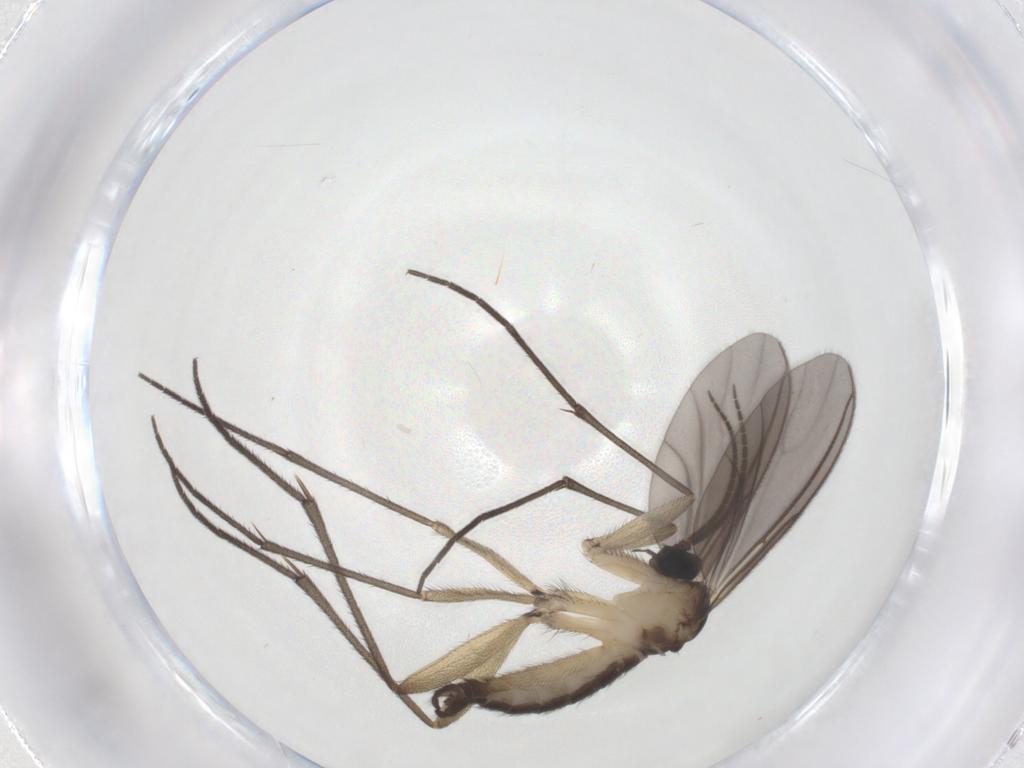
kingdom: Animalia
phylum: Arthropoda
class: Insecta
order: Diptera
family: Sciaridae
